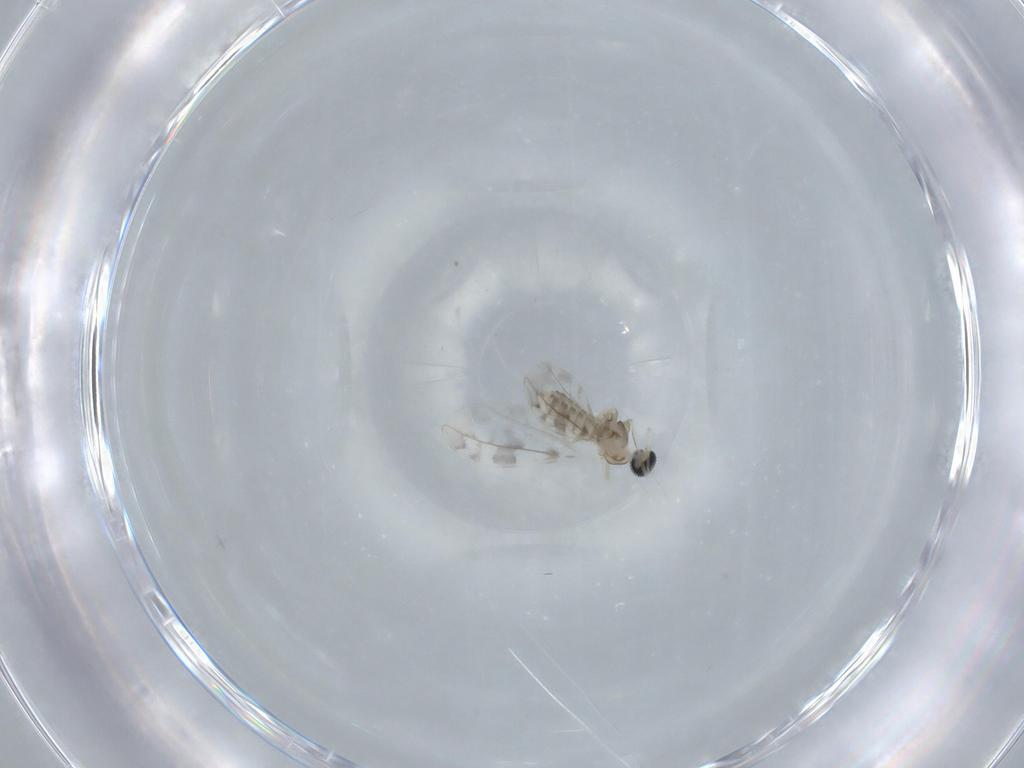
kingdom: Animalia
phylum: Arthropoda
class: Insecta
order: Diptera
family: Cecidomyiidae
